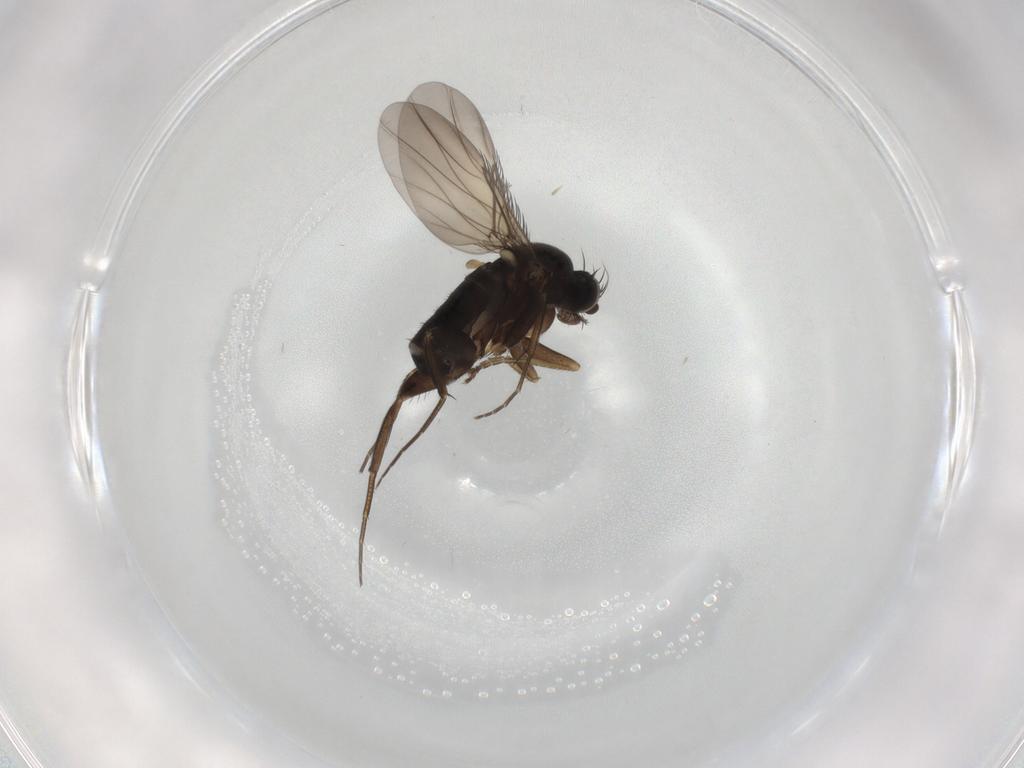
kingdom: Animalia
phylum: Arthropoda
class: Insecta
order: Diptera
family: Phoridae
